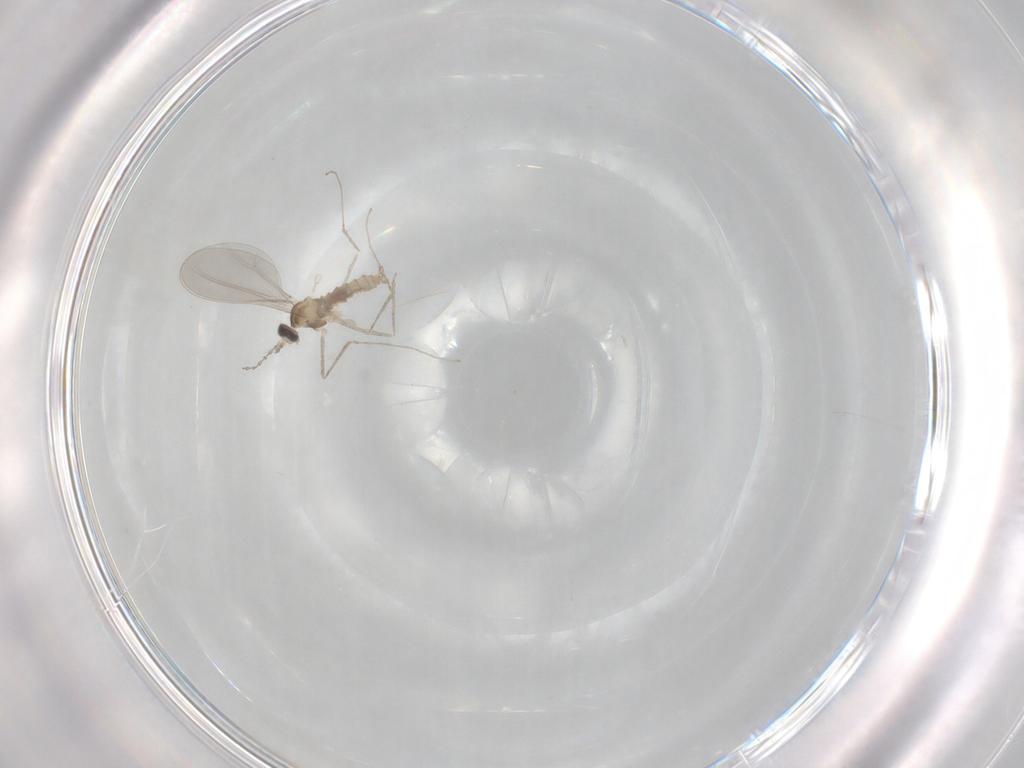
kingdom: Animalia
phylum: Arthropoda
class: Insecta
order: Diptera
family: Cecidomyiidae
